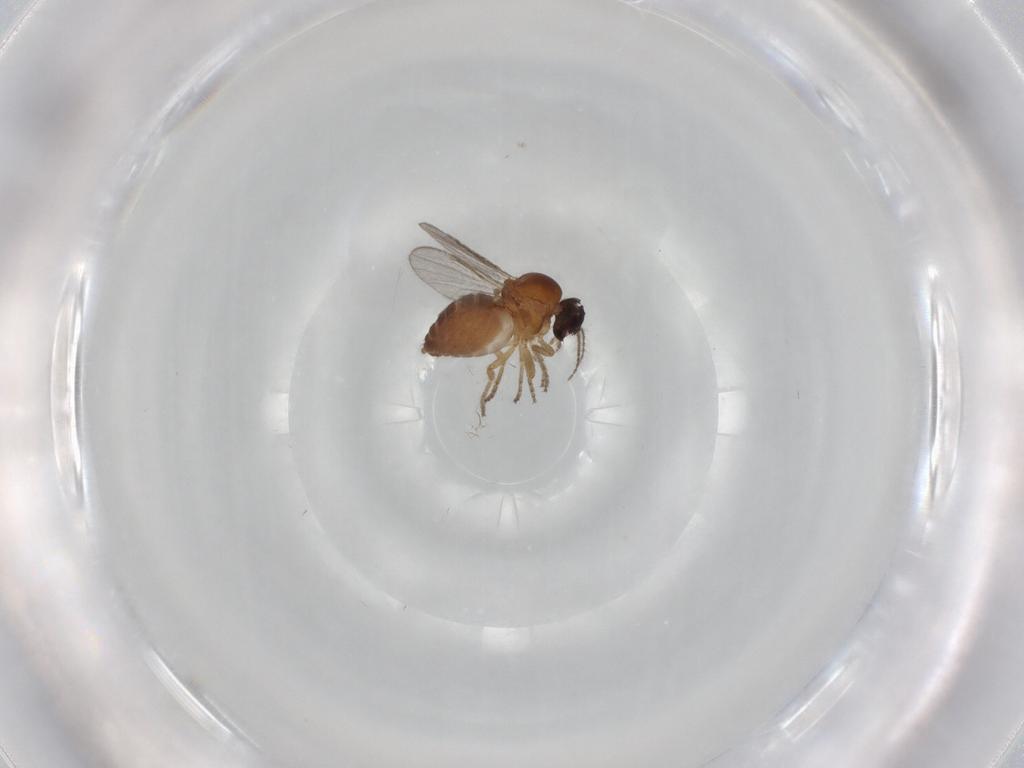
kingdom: Animalia
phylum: Arthropoda
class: Insecta
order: Diptera
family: Ceratopogonidae
